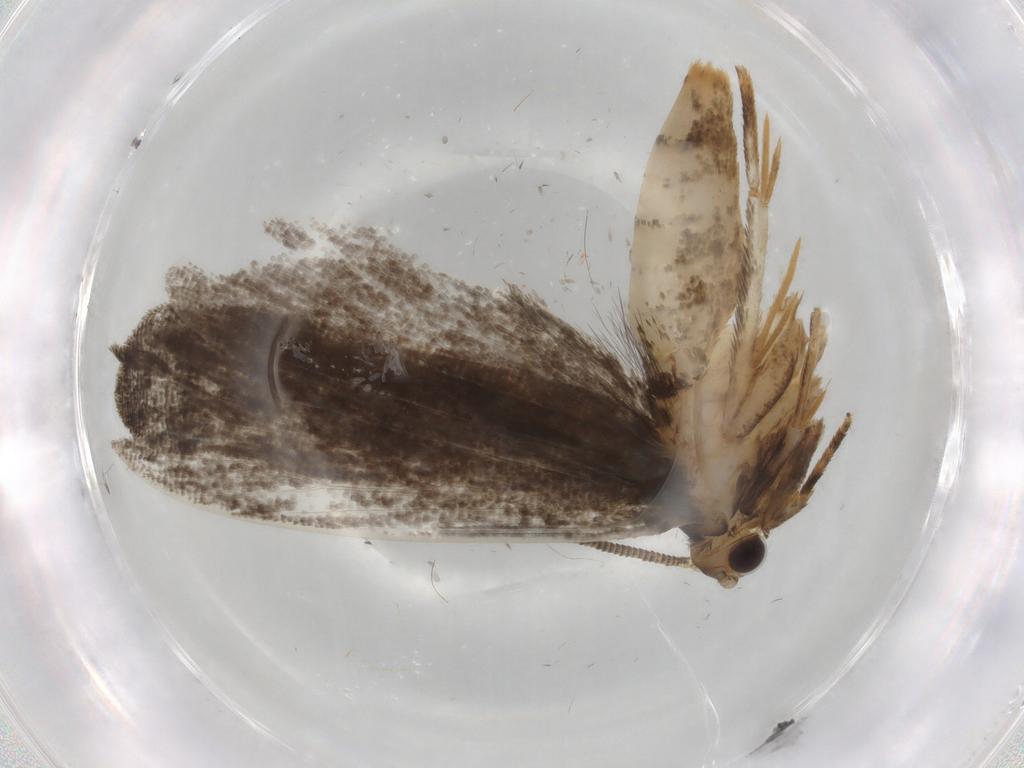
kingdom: Animalia
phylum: Arthropoda
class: Insecta
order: Lepidoptera
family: Tineidae
